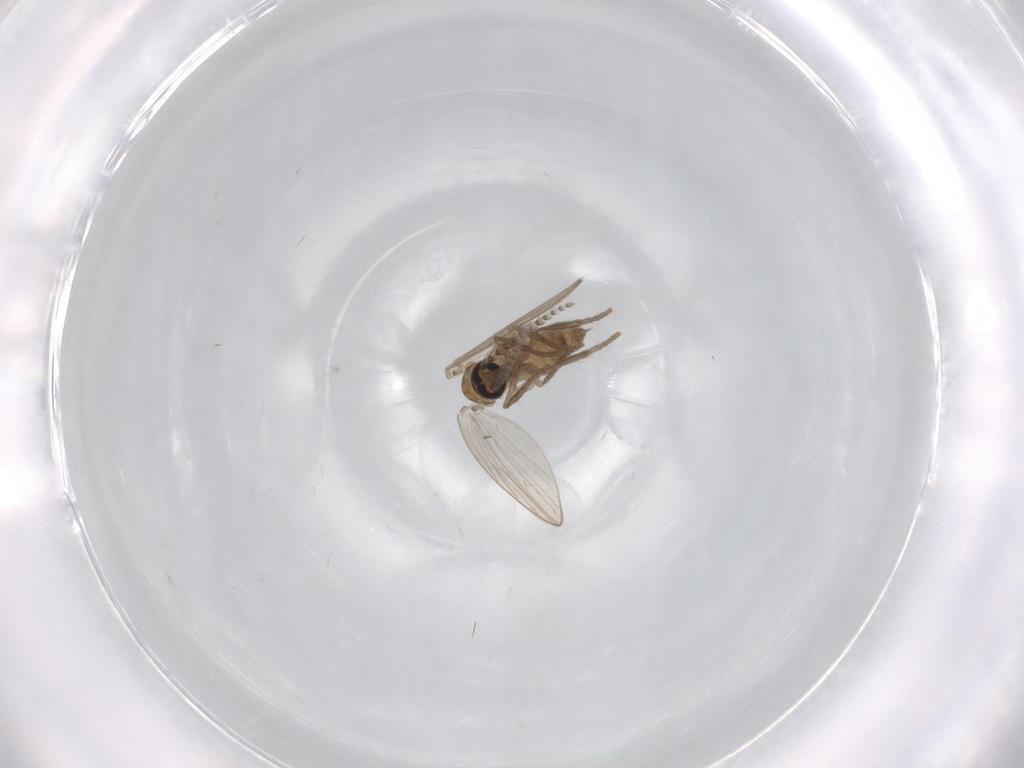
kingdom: Animalia
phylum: Arthropoda
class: Insecta
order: Diptera
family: Psychodidae
